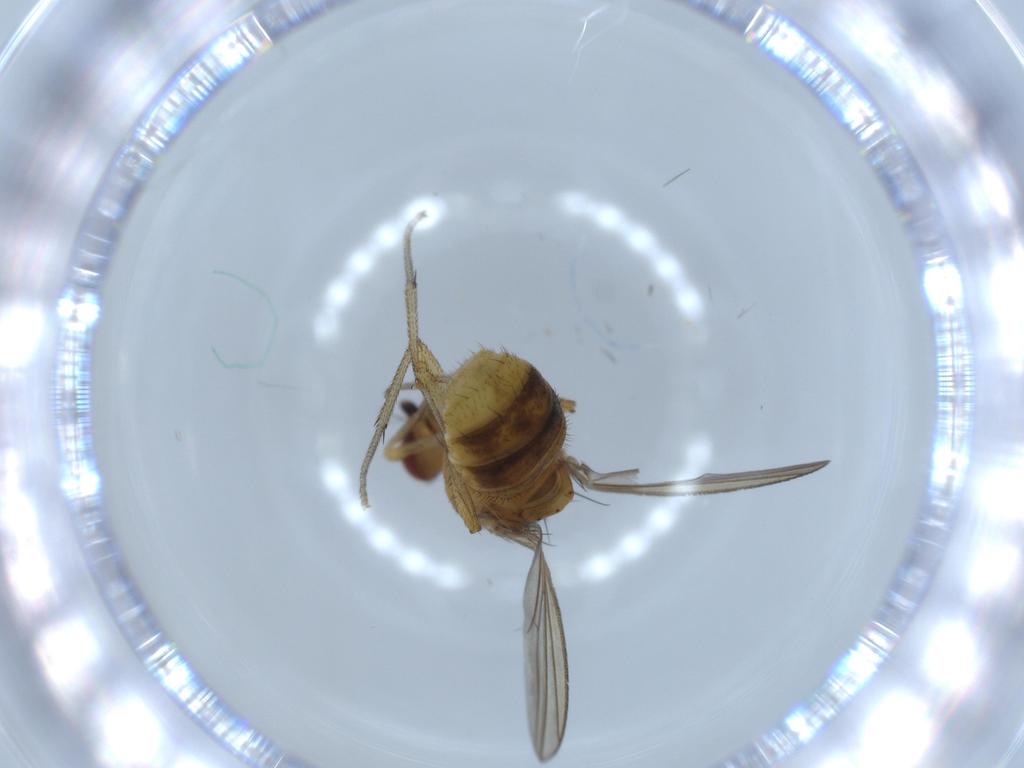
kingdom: Animalia
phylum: Arthropoda
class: Insecta
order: Diptera
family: Lauxaniidae
